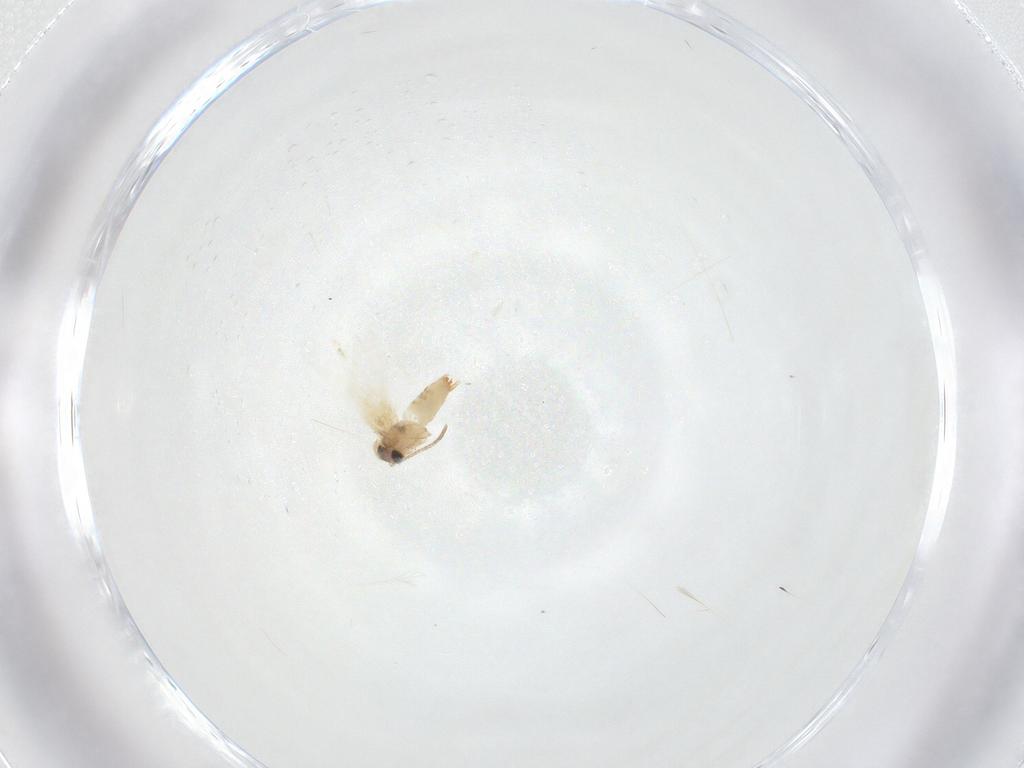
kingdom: Animalia
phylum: Arthropoda
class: Insecta
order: Lepidoptera
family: Crambidae
